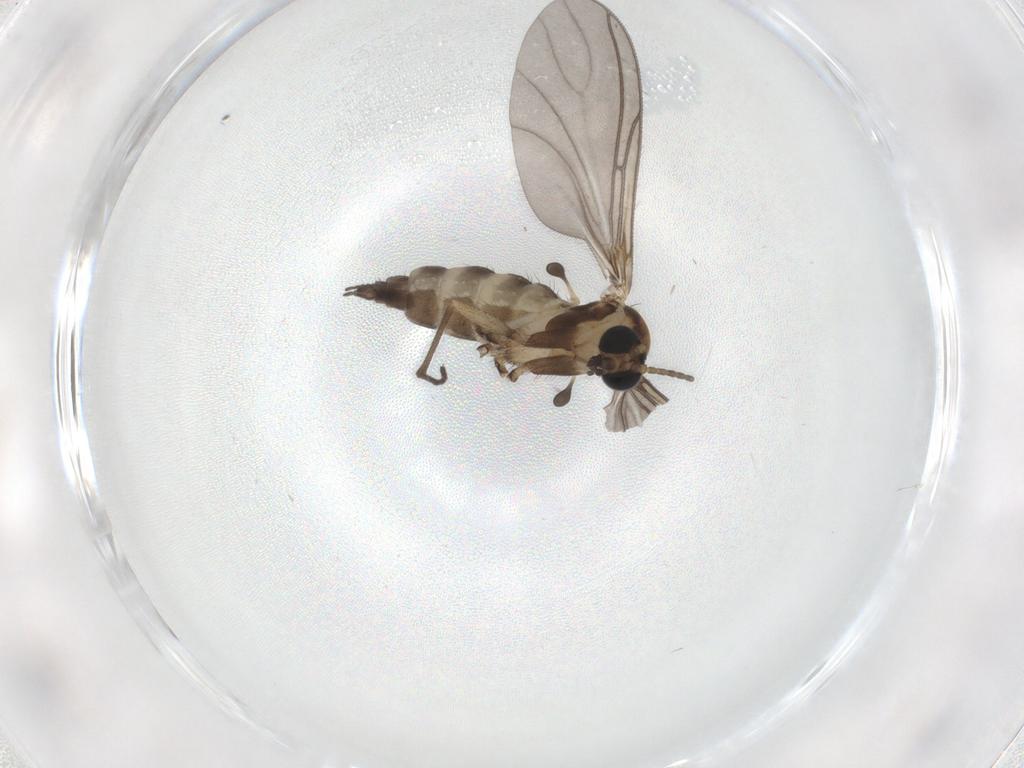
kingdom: Animalia
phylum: Arthropoda
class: Insecta
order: Diptera
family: Sciaridae
